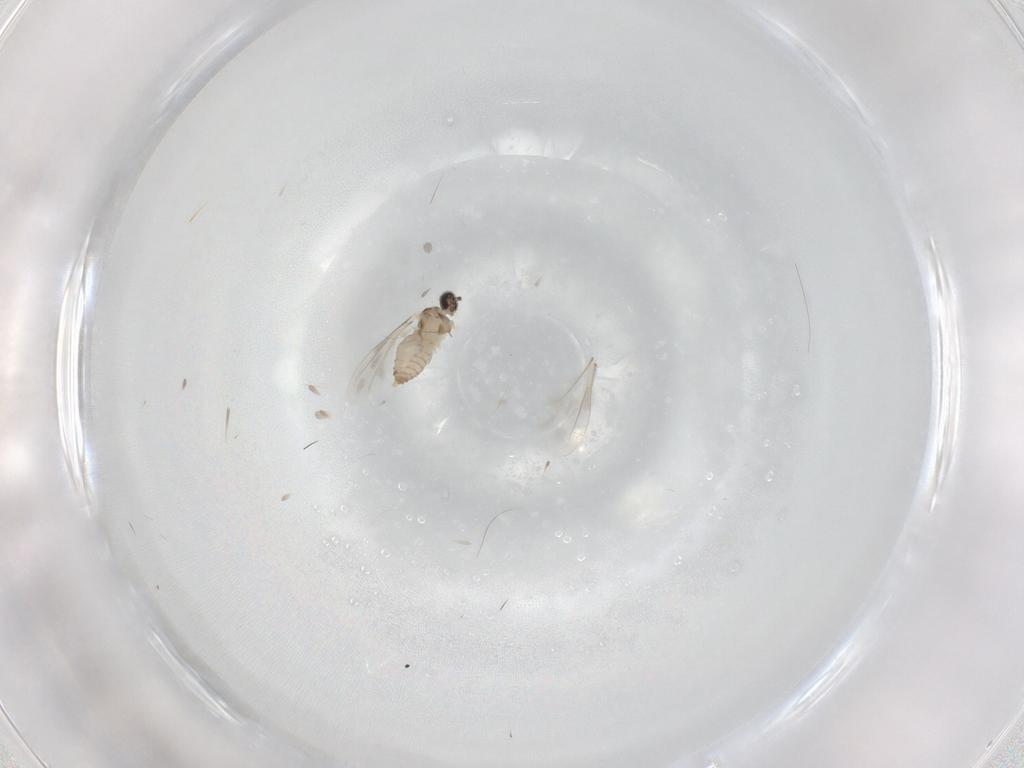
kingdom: Animalia
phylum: Arthropoda
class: Insecta
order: Diptera
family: Cecidomyiidae
